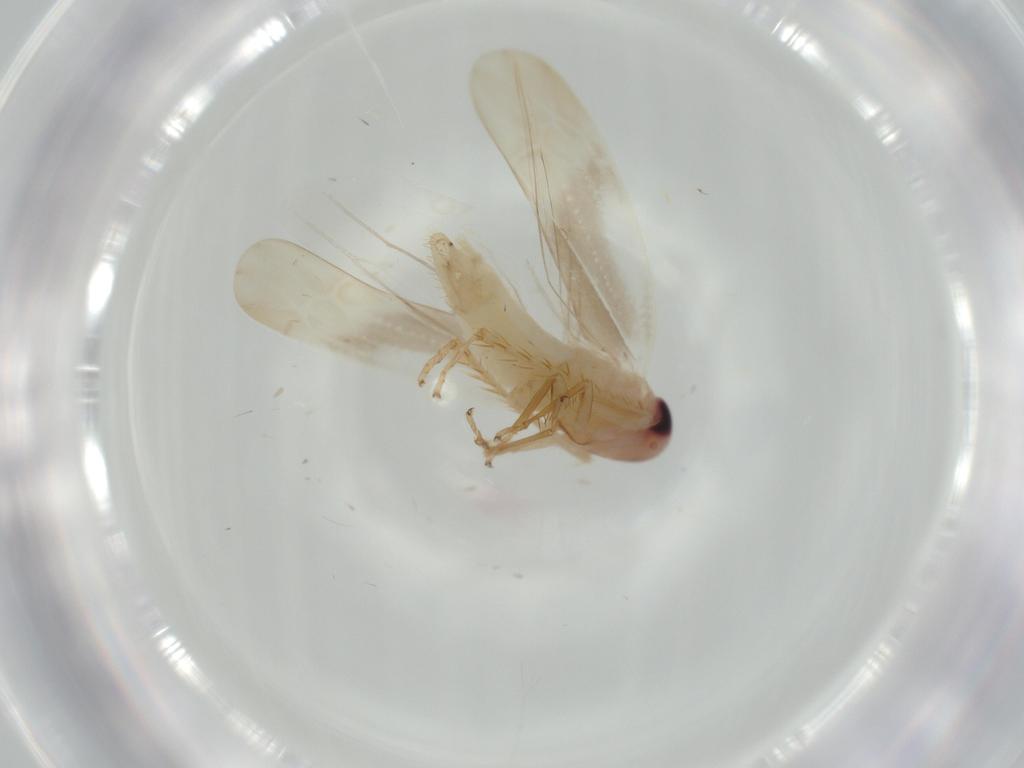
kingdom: Animalia
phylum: Arthropoda
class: Insecta
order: Hemiptera
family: Cicadellidae
